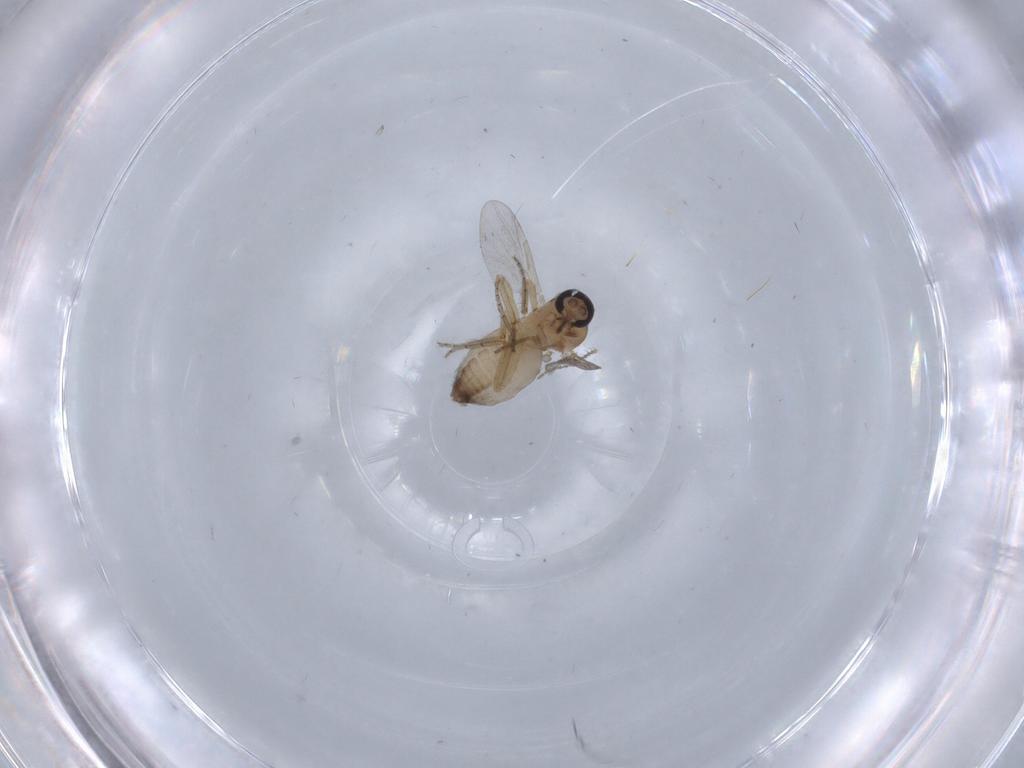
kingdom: Animalia
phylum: Arthropoda
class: Insecta
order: Diptera
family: Ceratopogonidae
